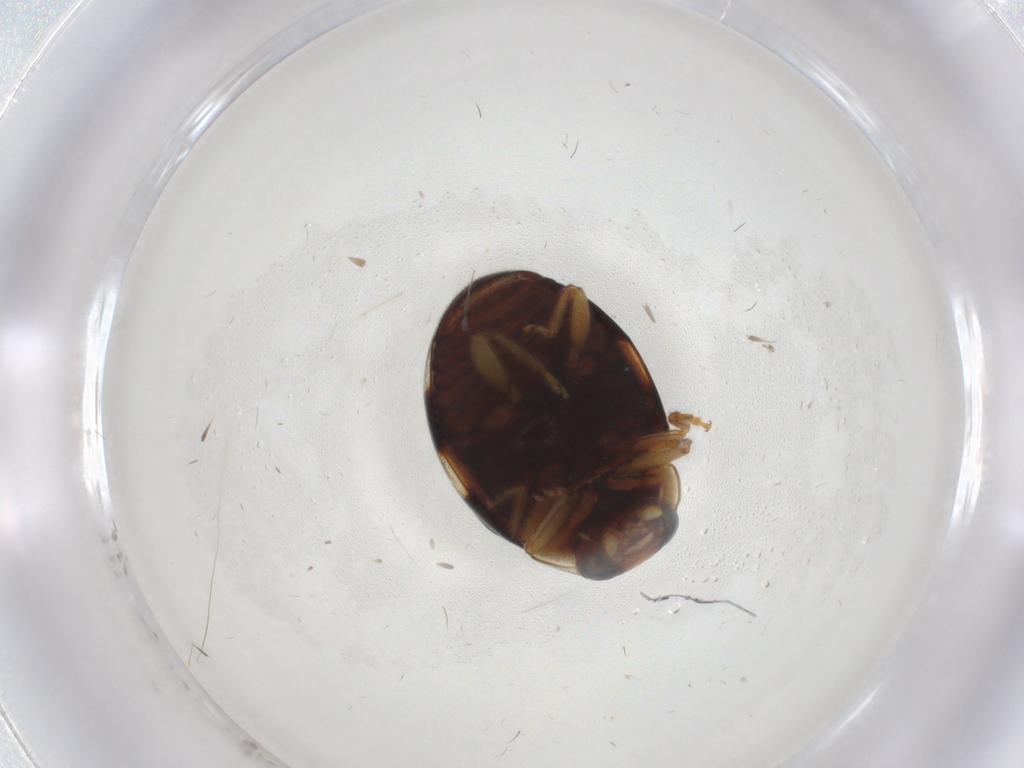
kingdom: Animalia
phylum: Arthropoda
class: Insecta
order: Coleoptera
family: Coccinellidae
